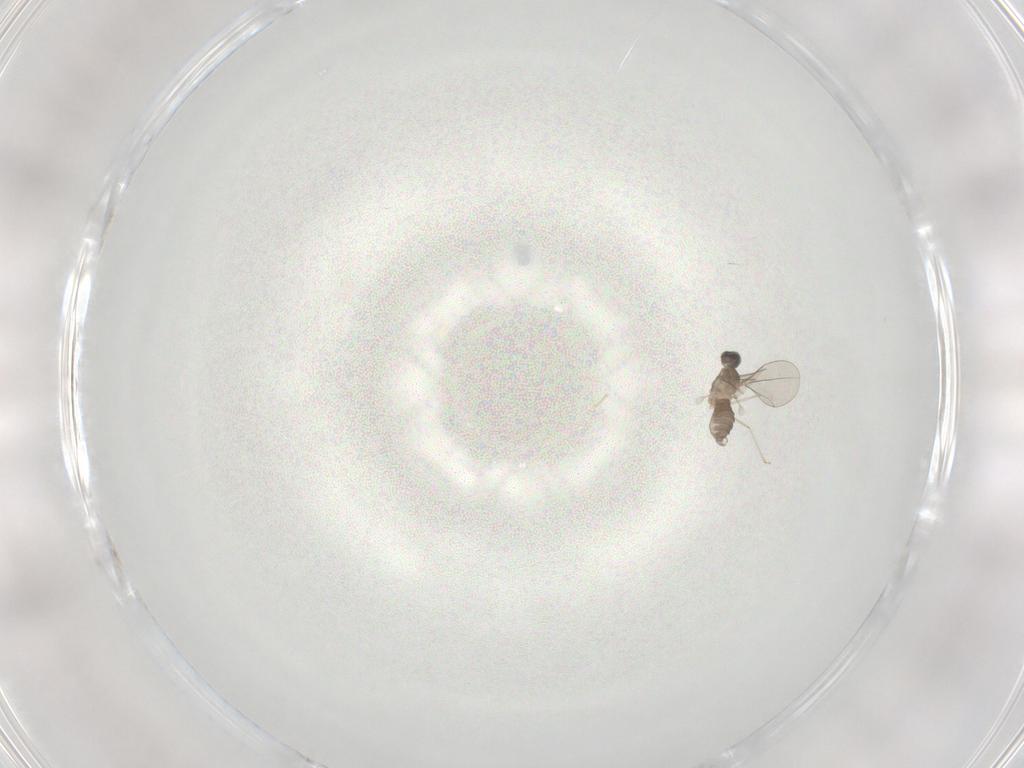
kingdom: Animalia
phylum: Arthropoda
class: Insecta
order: Diptera
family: Cecidomyiidae
